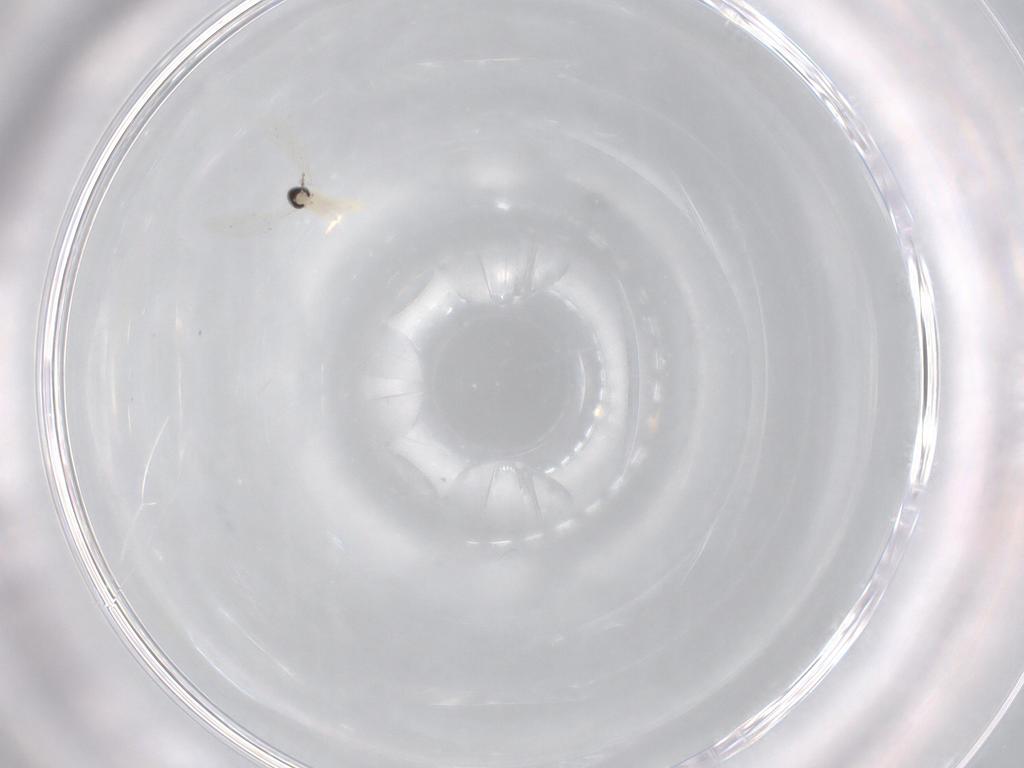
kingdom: Animalia
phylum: Arthropoda
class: Insecta
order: Diptera
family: Cecidomyiidae
